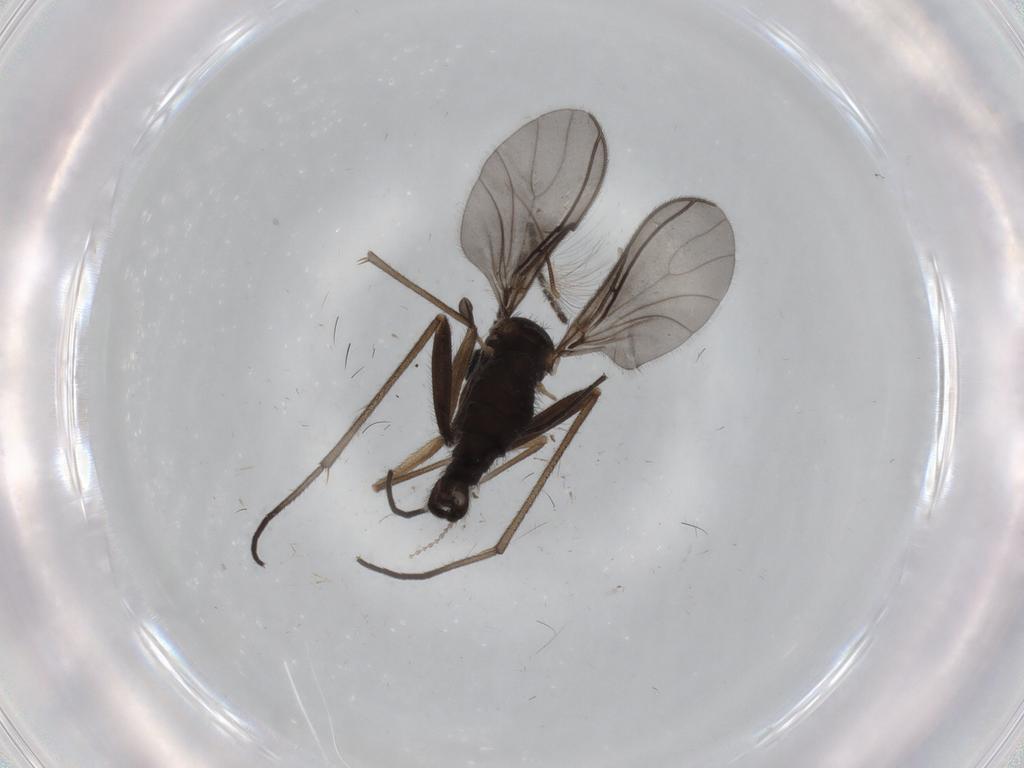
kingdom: Animalia
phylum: Arthropoda
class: Insecta
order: Diptera
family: Sciaridae
